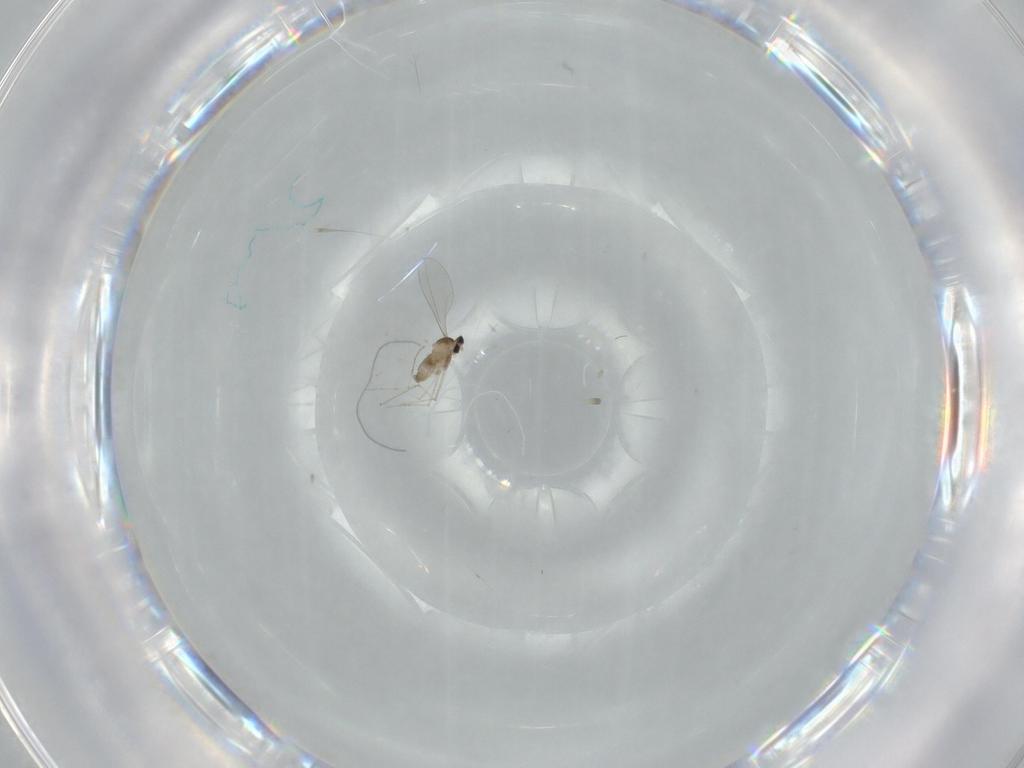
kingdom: Animalia
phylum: Arthropoda
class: Insecta
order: Diptera
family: Cecidomyiidae
